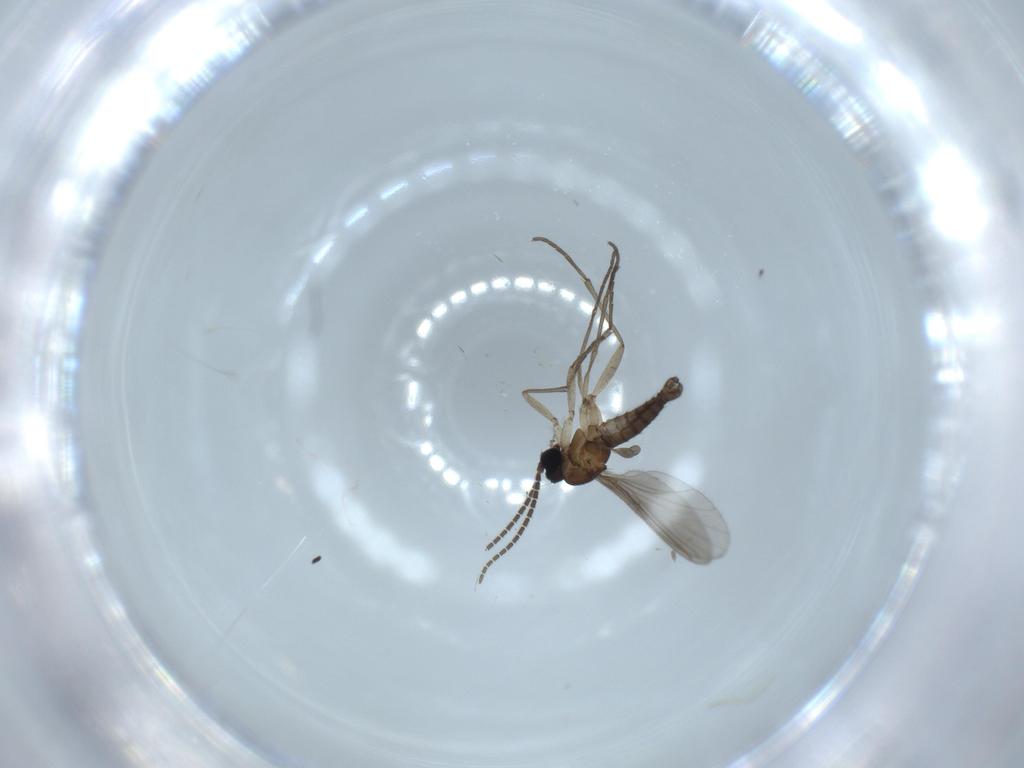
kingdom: Animalia
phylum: Arthropoda
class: Insecta
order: Diptera
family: Sciaridae
